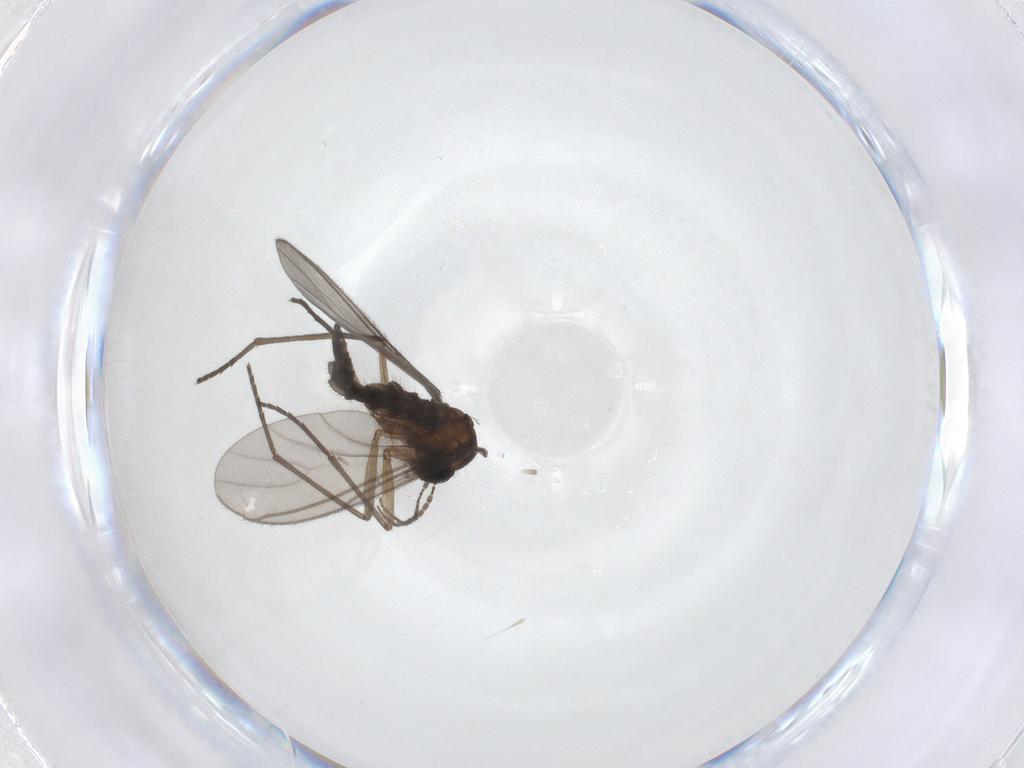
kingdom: Animalia
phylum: Arthropoda
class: Insecta
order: Diptera
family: Sciaridae
